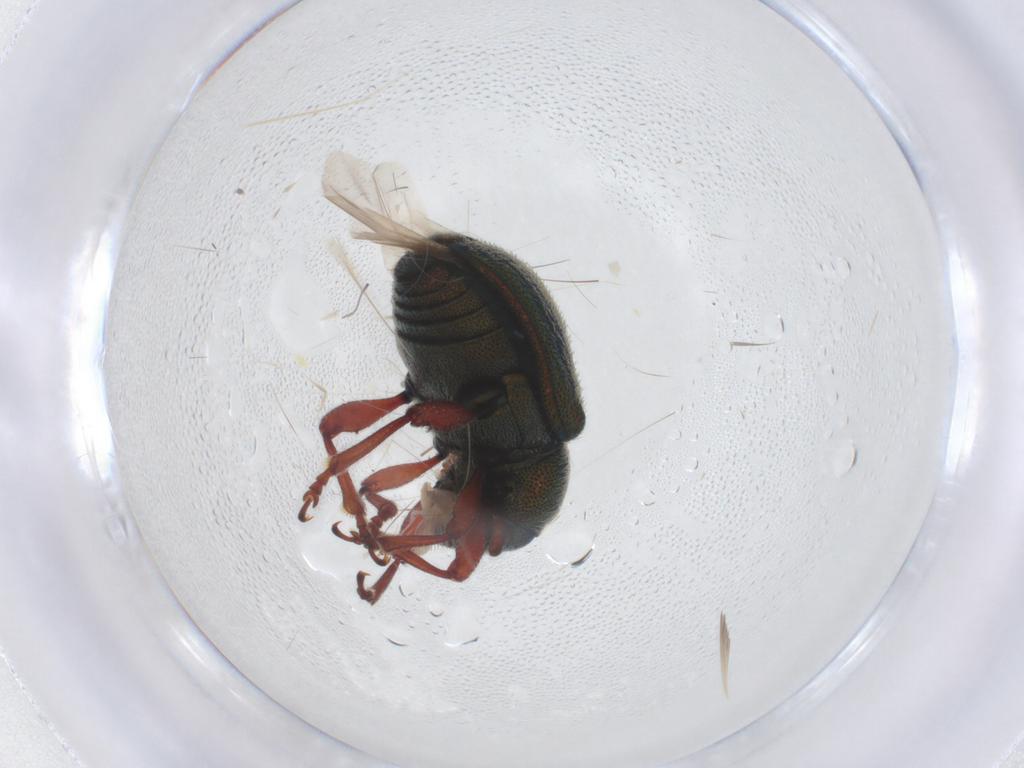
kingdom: Animalia
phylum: Arthropoda
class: Insecta
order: Coleoptera
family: Chrysomelidae
